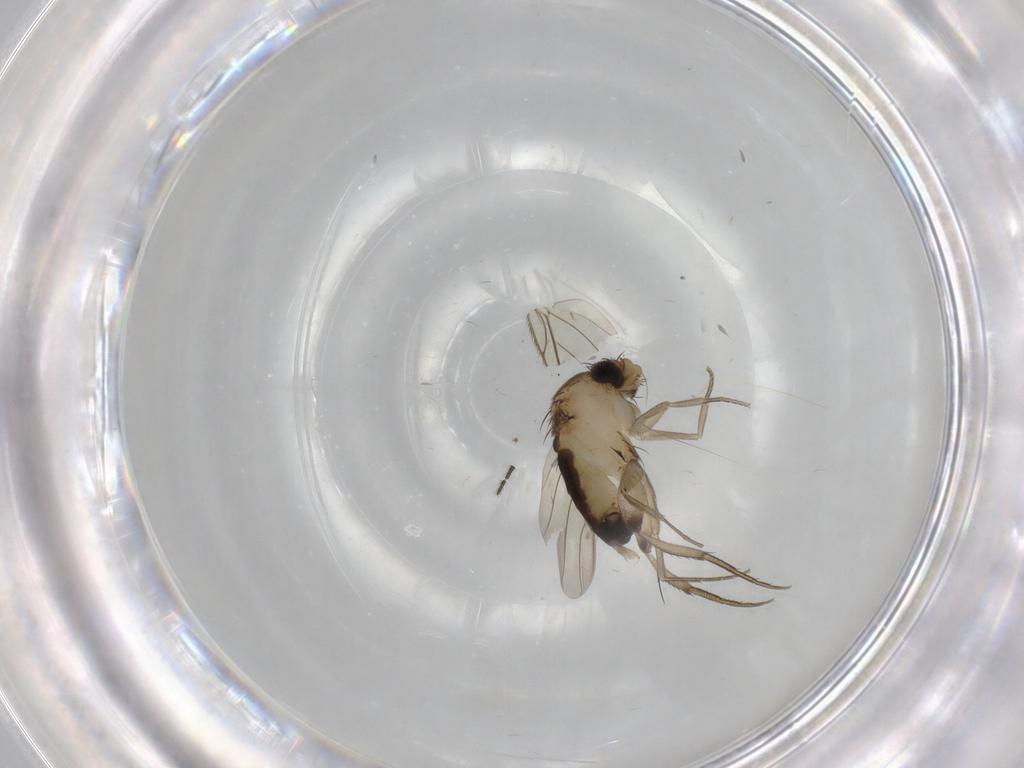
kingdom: Animalia
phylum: Arthropoda
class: Insecta
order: Diptera
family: Phoridae
